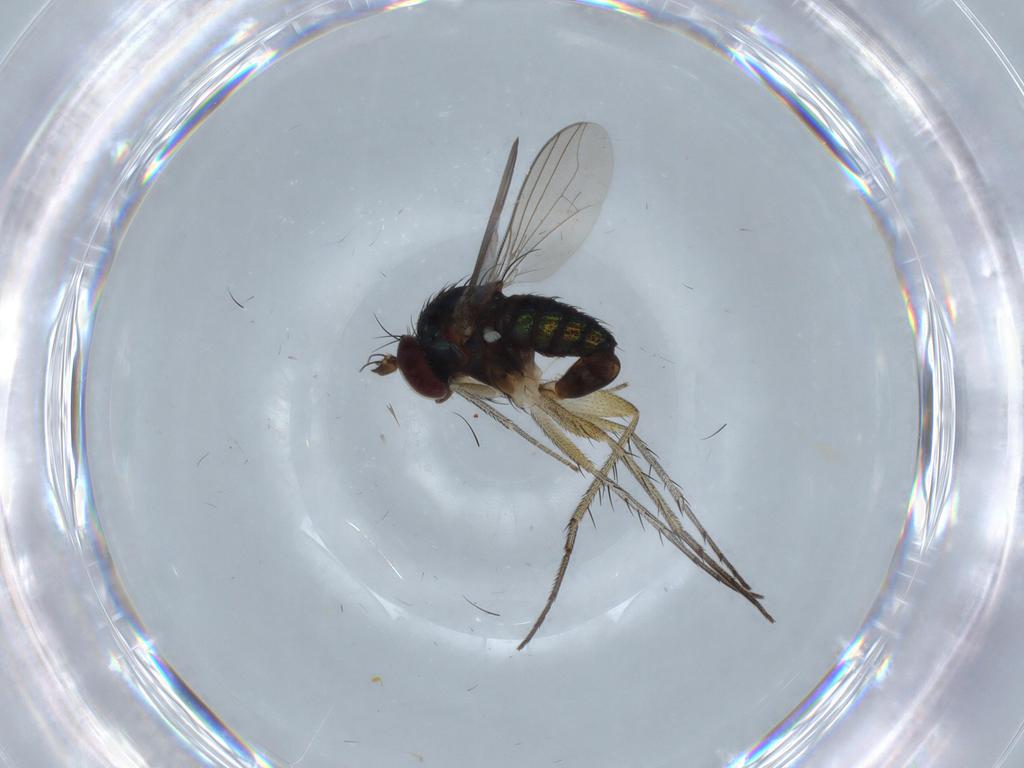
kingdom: Animalia
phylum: Arthropoda
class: Insecta
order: Diptera
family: Dolichopodidae
